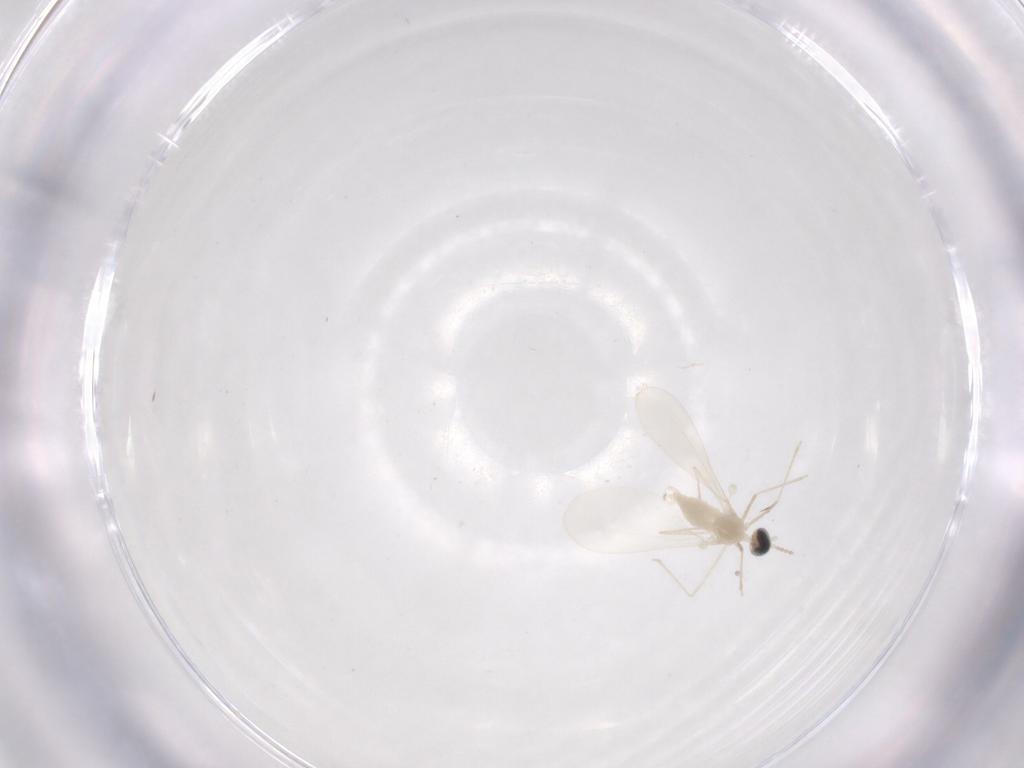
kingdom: Animalia
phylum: Arthropoda
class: Insecta
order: Diptera
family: Cecidomyiidae
